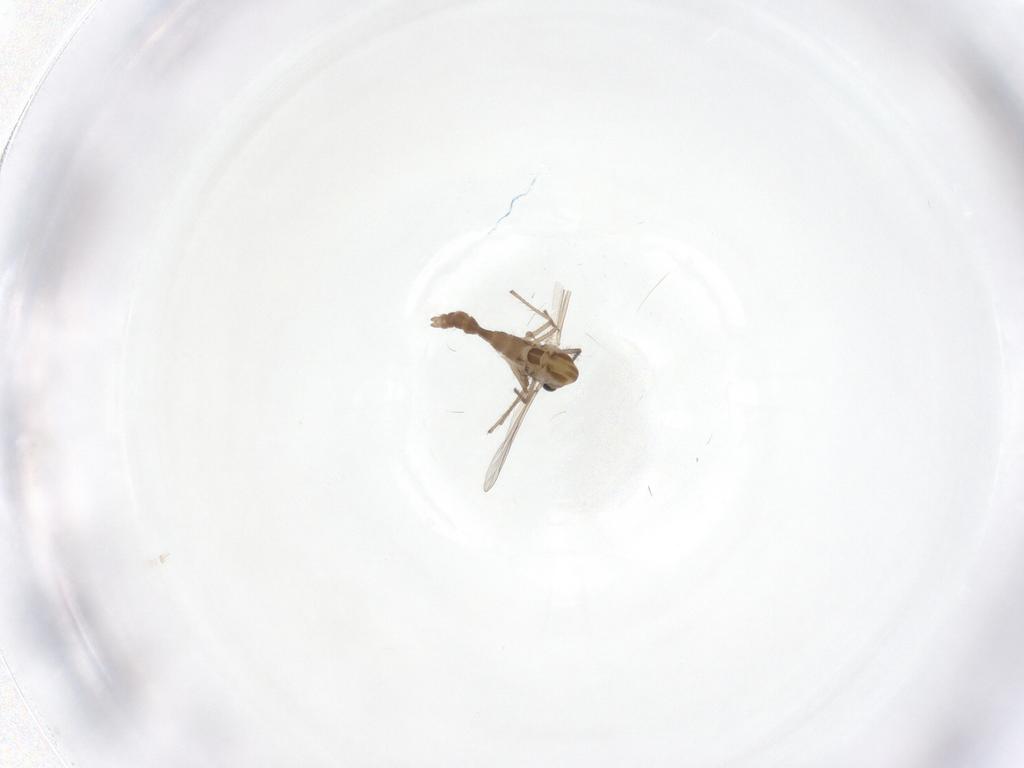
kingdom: Animalia
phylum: Arthropoda
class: Insecta
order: Diptera
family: Chironomidae
